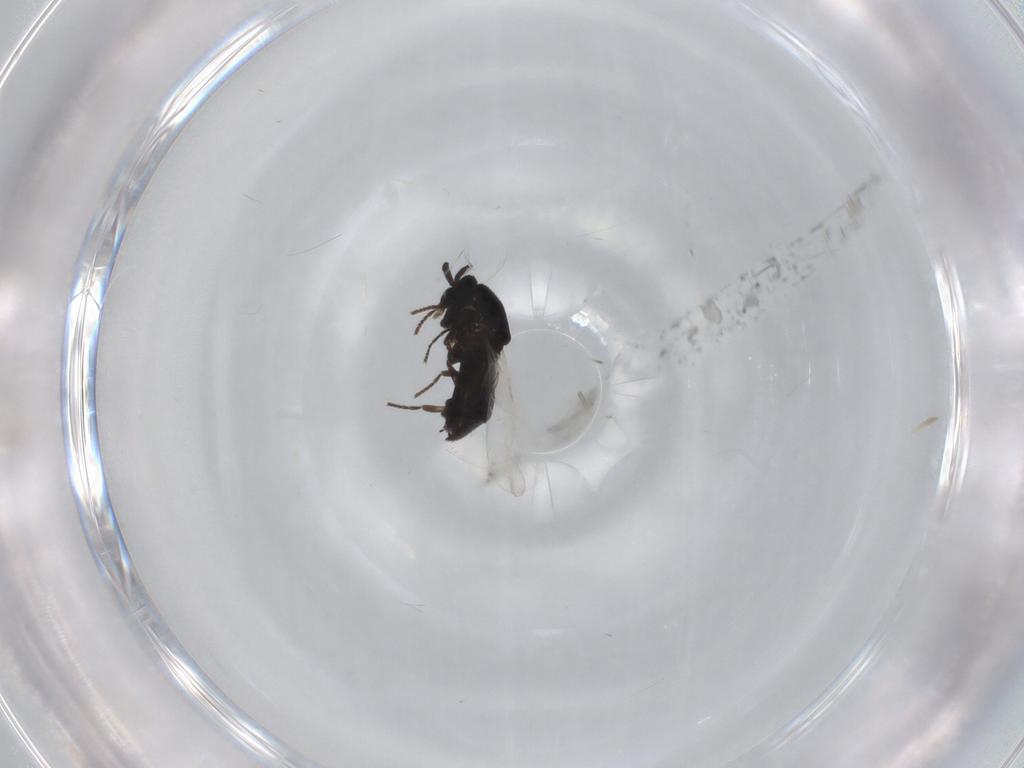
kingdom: Animalia
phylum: Arthropoda
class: Insecta
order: Diptera
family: Scatopsidae
